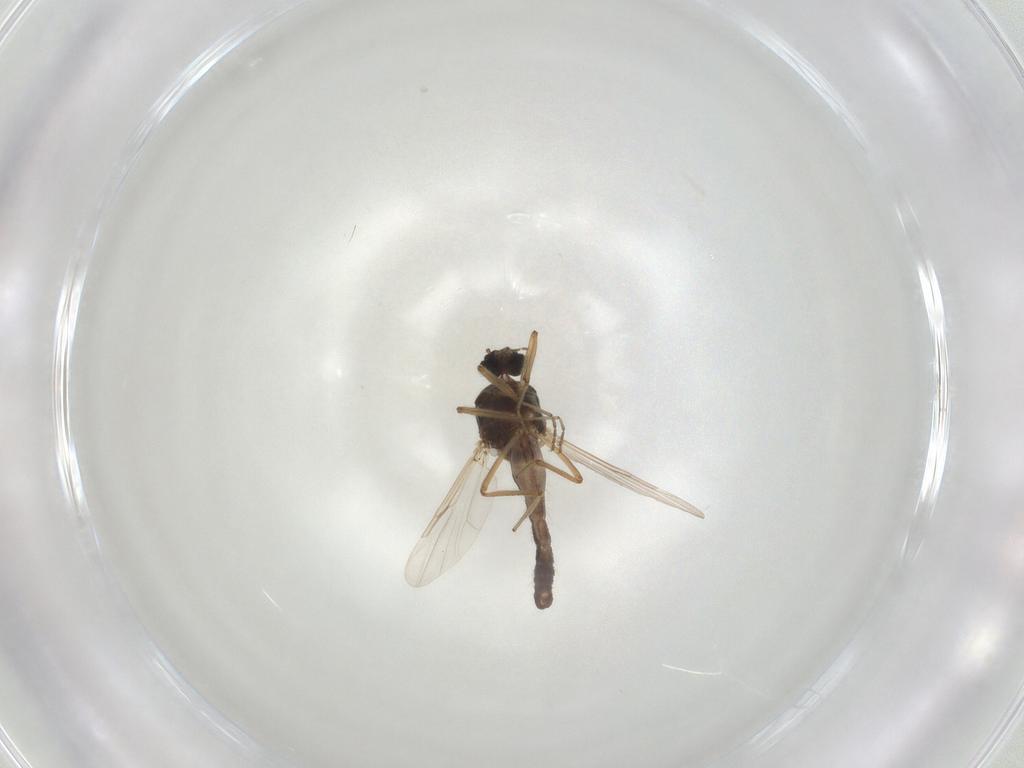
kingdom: Animalia
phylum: Arthropoda
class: Insecta
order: Diptera
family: Ceratopogonidae
